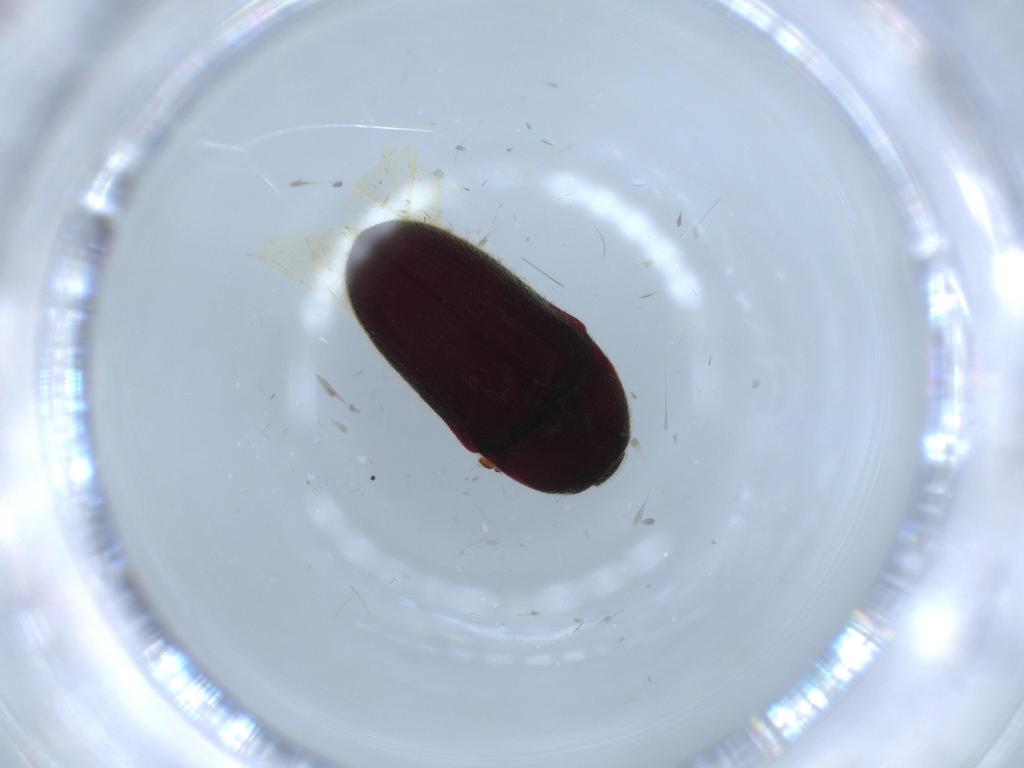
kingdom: Animalia
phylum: Arthropoda
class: Insecta
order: Coleoptera
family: Throscidae
